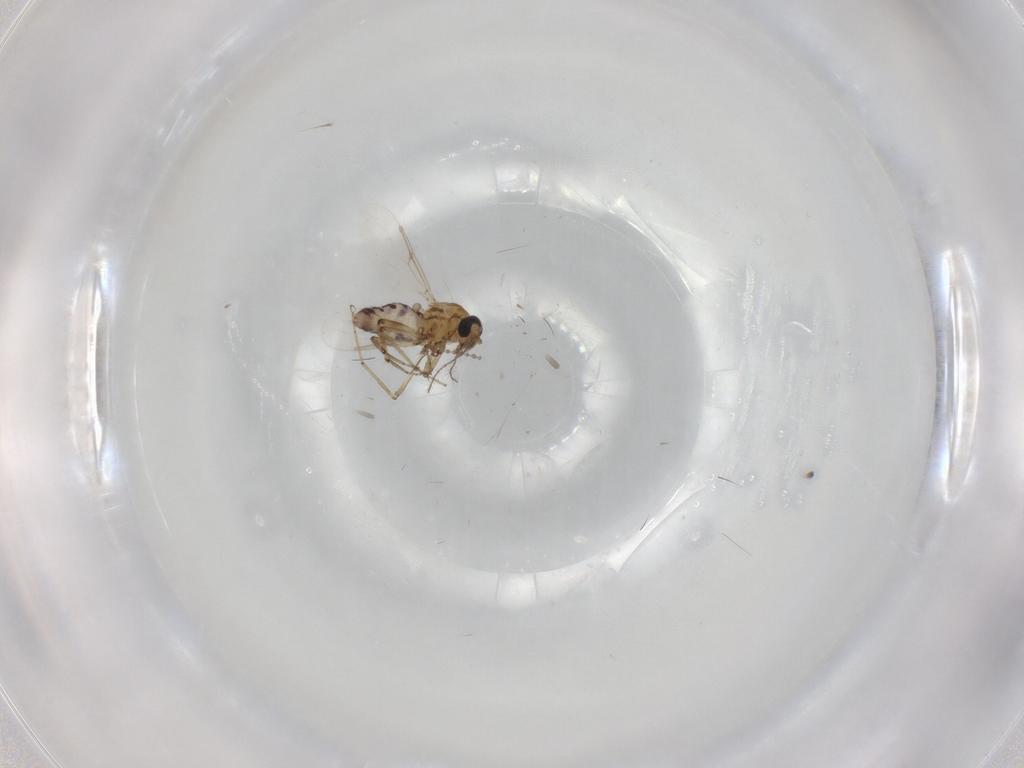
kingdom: Animalia
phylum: Arthropoda
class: Insecta
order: Diptera
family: Ceratopogonidae
